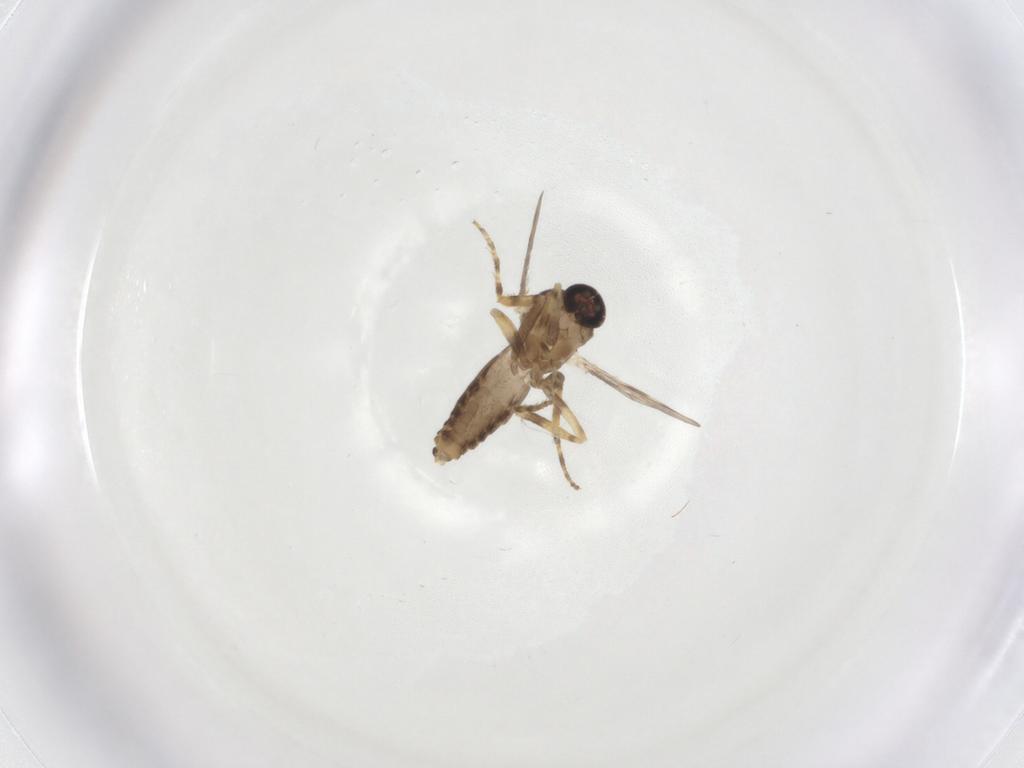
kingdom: Animalia
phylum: Arthropoda
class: Insecta
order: Diptera
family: Ceratopogonidae
